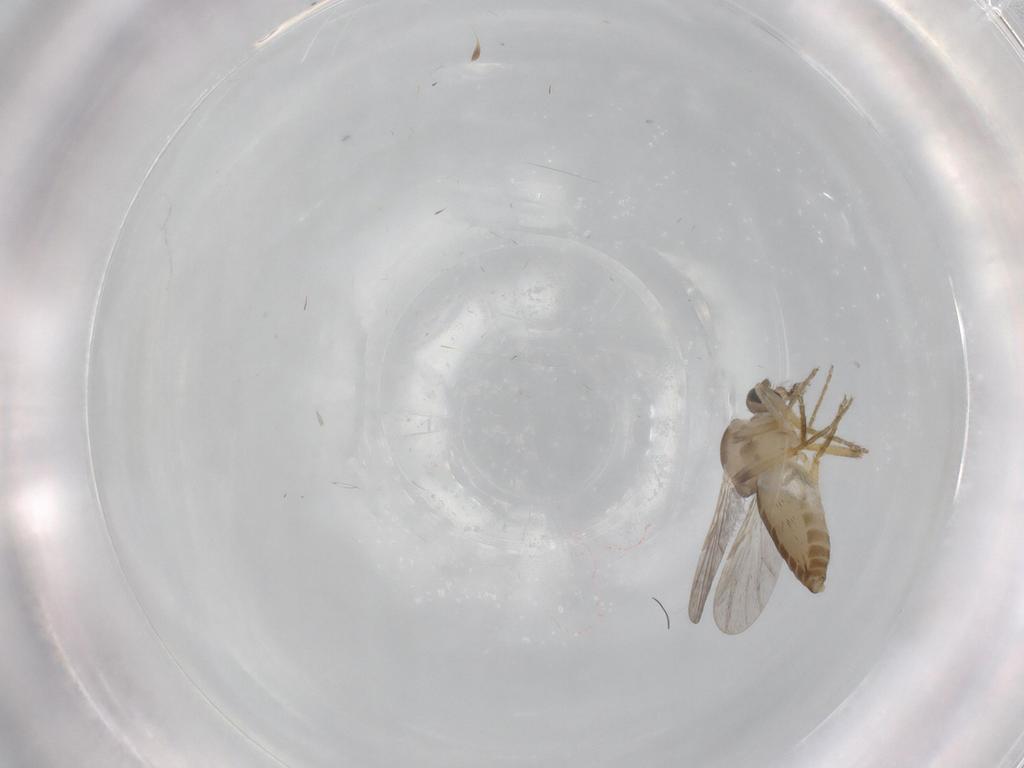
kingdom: Animalia
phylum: Arthropoda
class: Insecta
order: Diptera
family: Ceratopogonidae
